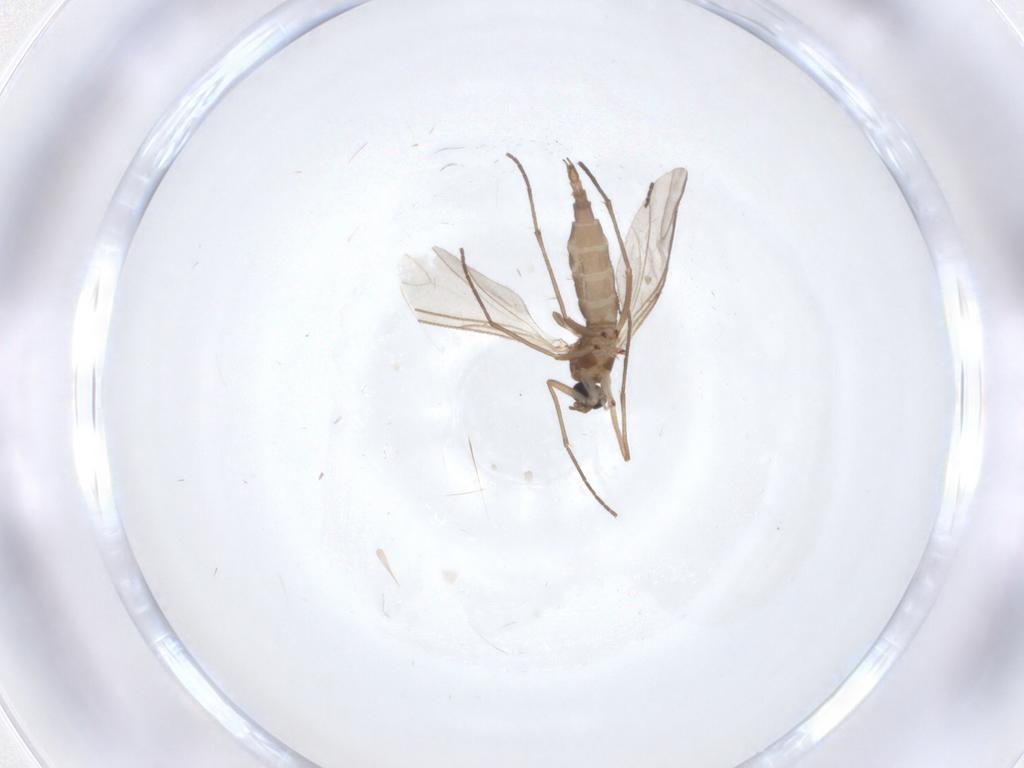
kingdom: Animalia
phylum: Arthropoda
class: Insecta
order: Diptera
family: Sciaridae
